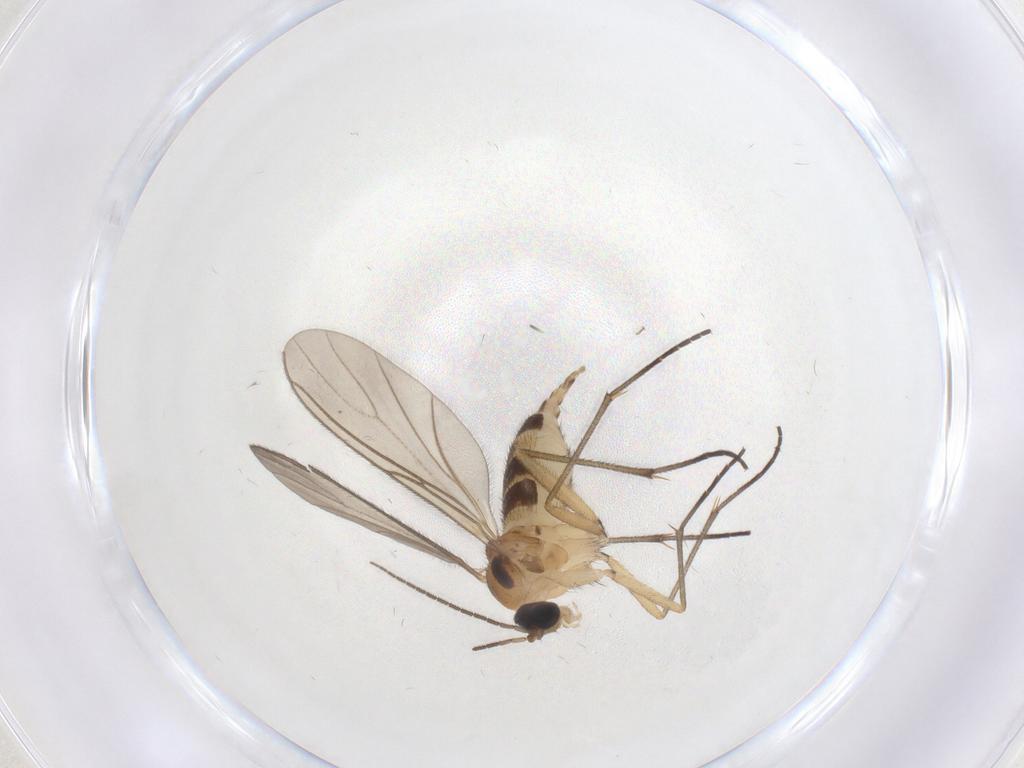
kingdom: Animalia
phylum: Arthropoda
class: Insecta
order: Diptera
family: Sciaridae
